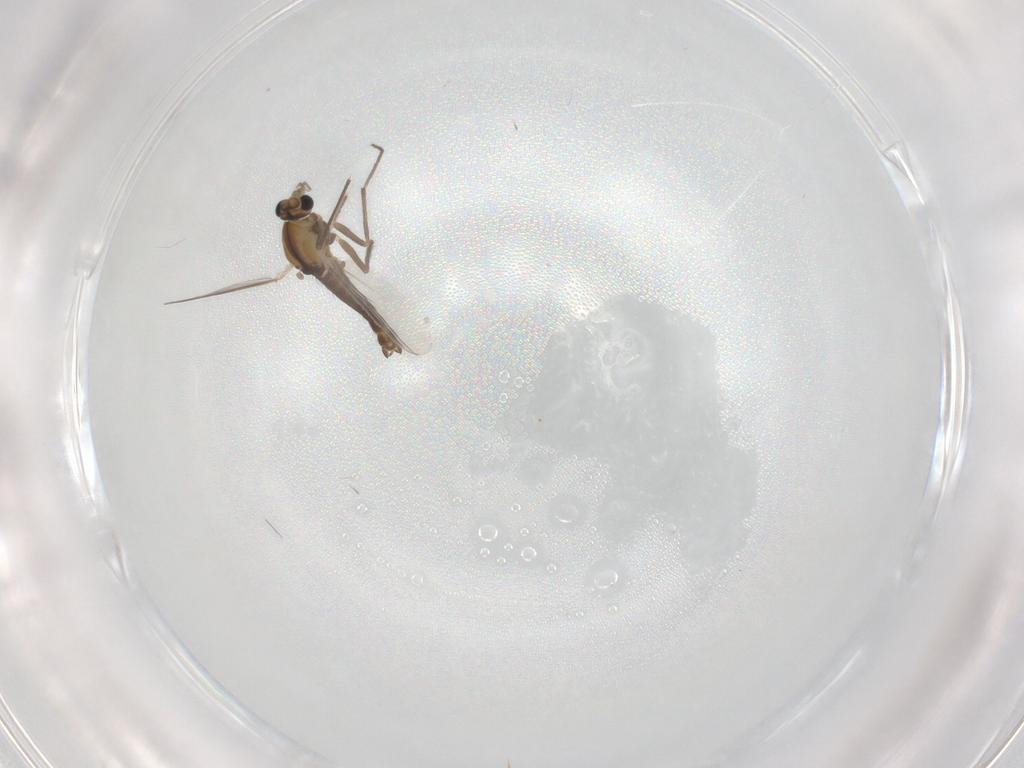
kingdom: Animalia
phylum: Arthropoda
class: Insecta
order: Diptera
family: Chironomidae
